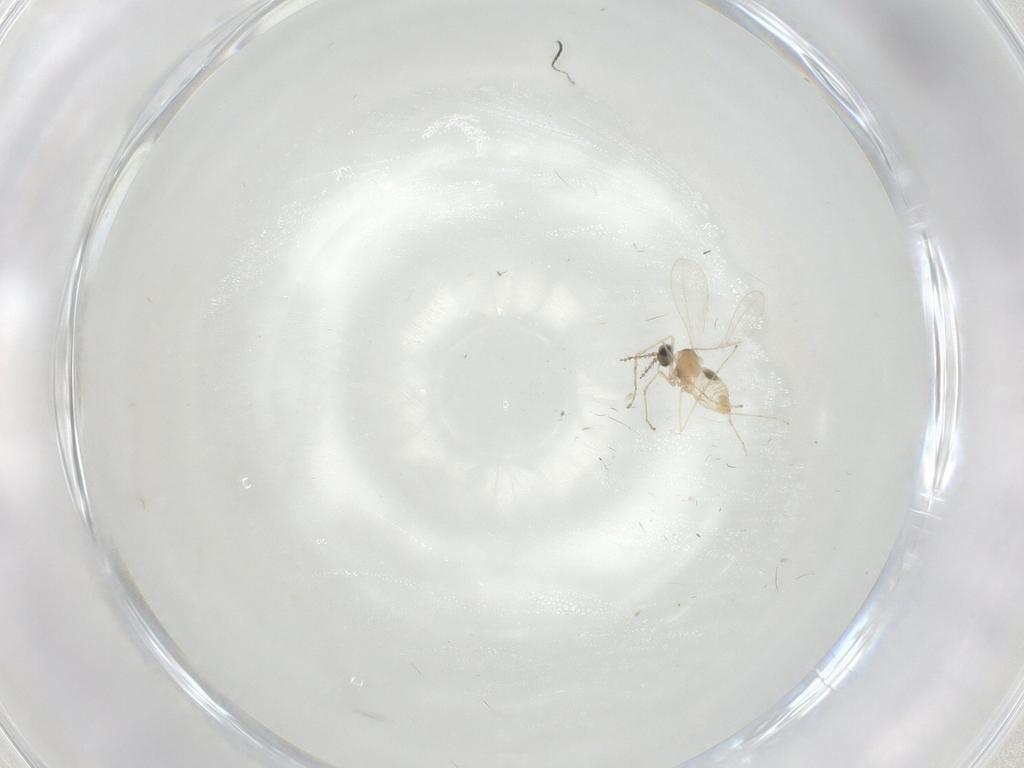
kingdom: Animalia
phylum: Arthropoda
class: Insecta
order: Diptera
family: Cecidomyiidae
